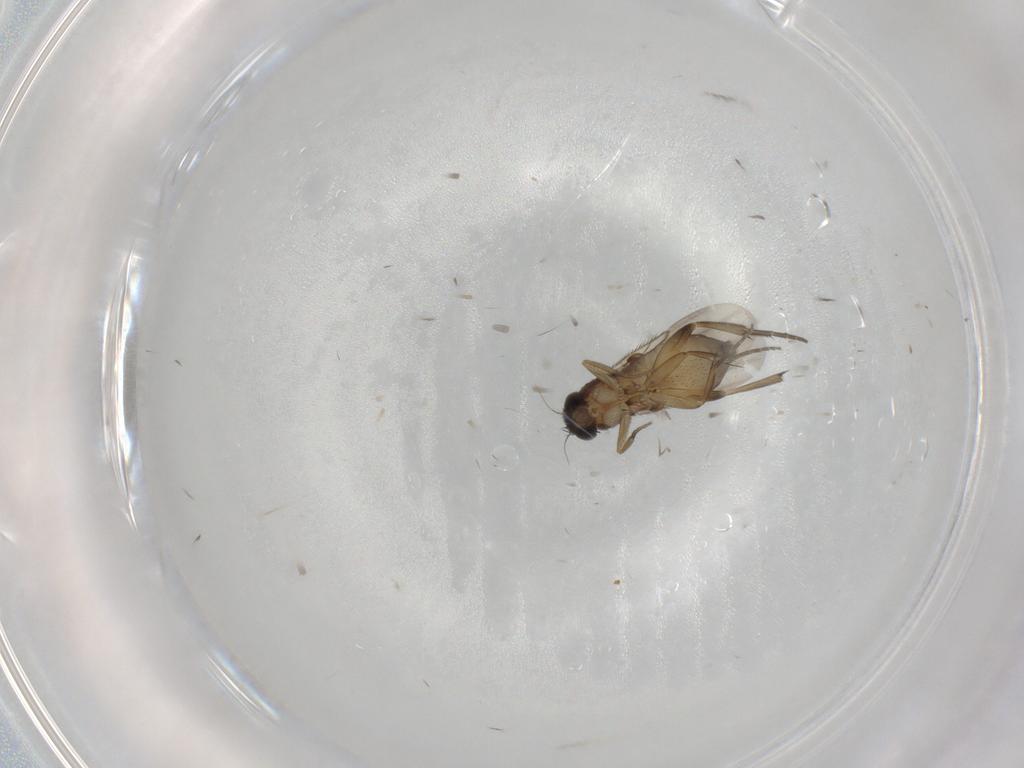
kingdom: Animalia
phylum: Arthropoda
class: Insecta
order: Diptera
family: Phoridae
